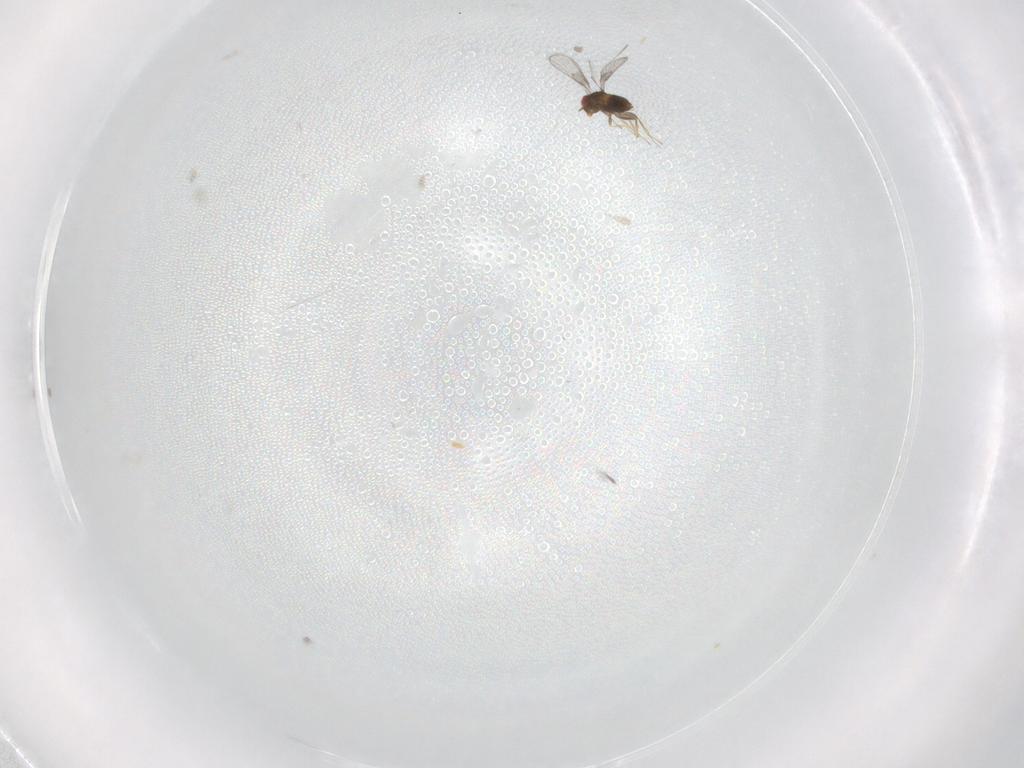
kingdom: Animalia
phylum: Arthropoda
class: Insecta
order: Hymenoptera
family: Trichogrammatidae
